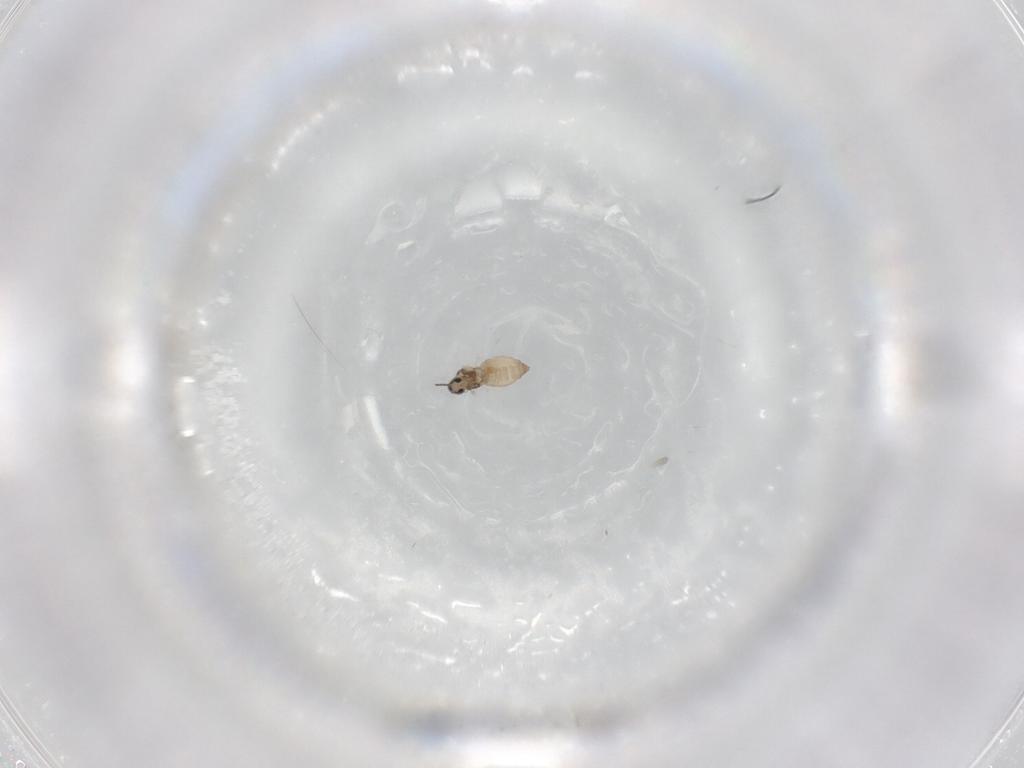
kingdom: Animalia
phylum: Arthropoda
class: Insecta
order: Diptera
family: Cecidomyiidae
